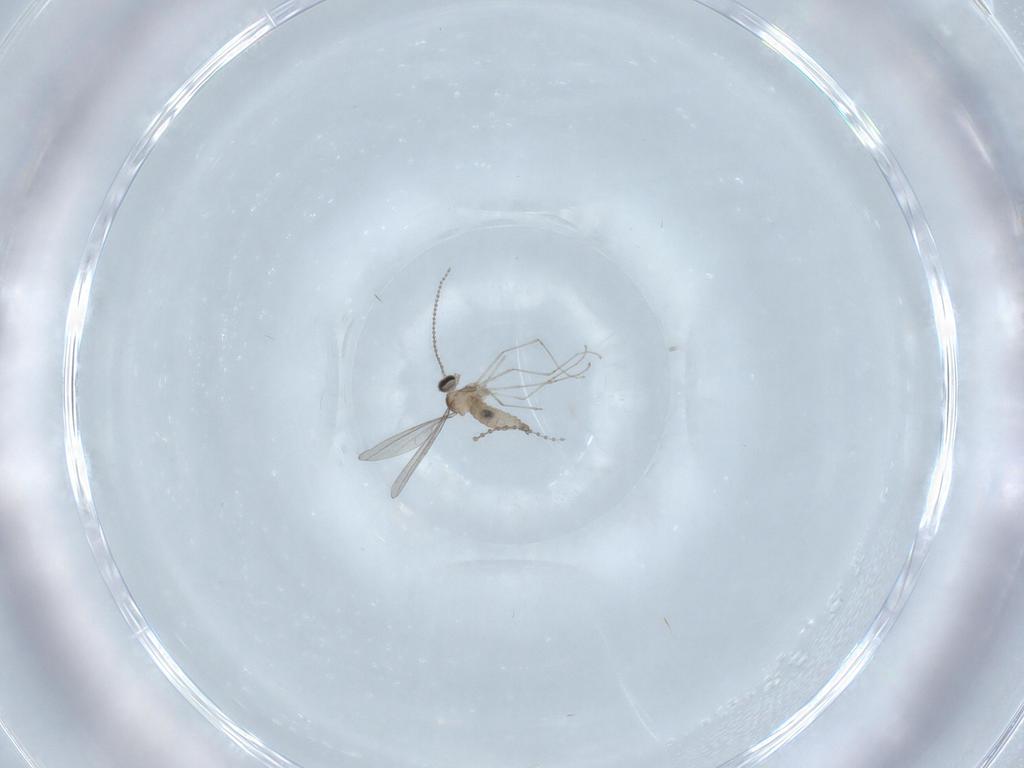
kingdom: Animalia
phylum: Arthropoda
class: Insecta
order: Diptera
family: Cecidomyiidae
